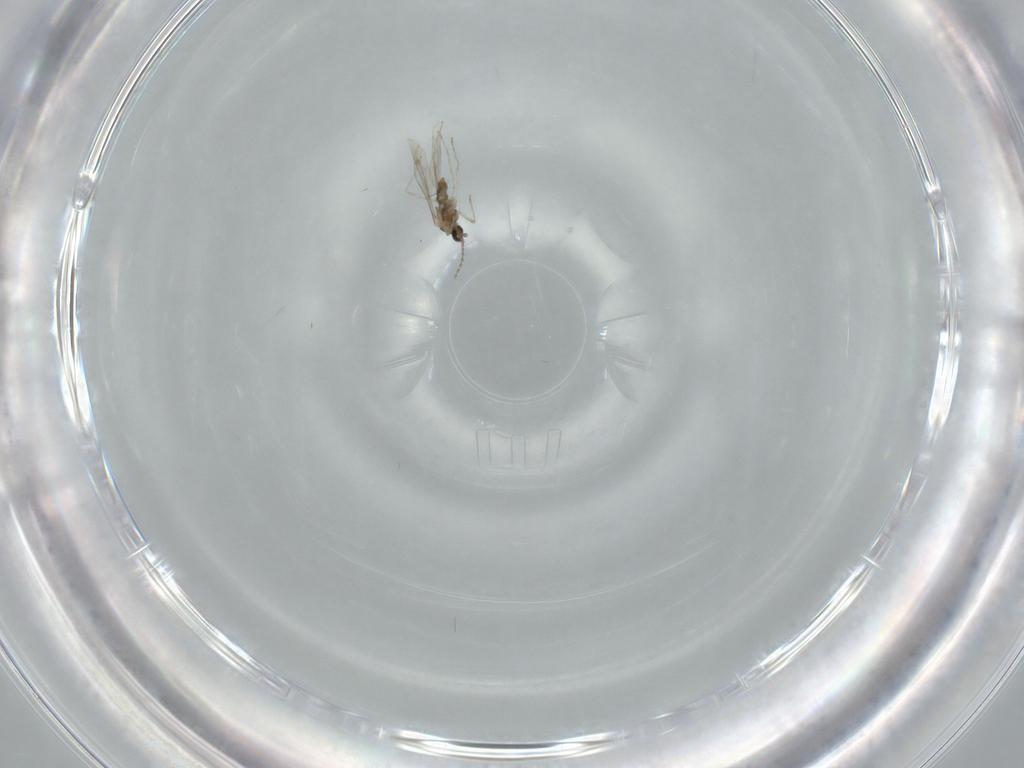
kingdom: Animalia
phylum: Arthropoda
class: Insecta
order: Diptera
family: Cecidomyiidae
